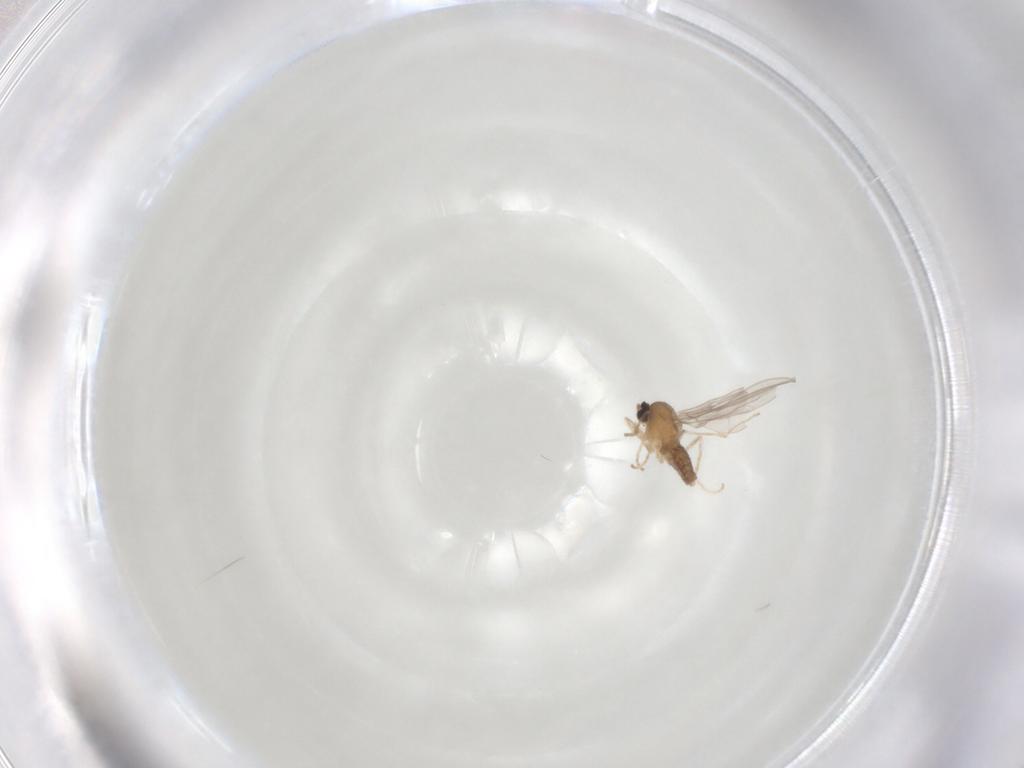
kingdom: Animalia
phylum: Arthropoda
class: Insecta
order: Diptera
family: Cecidomyiidae
